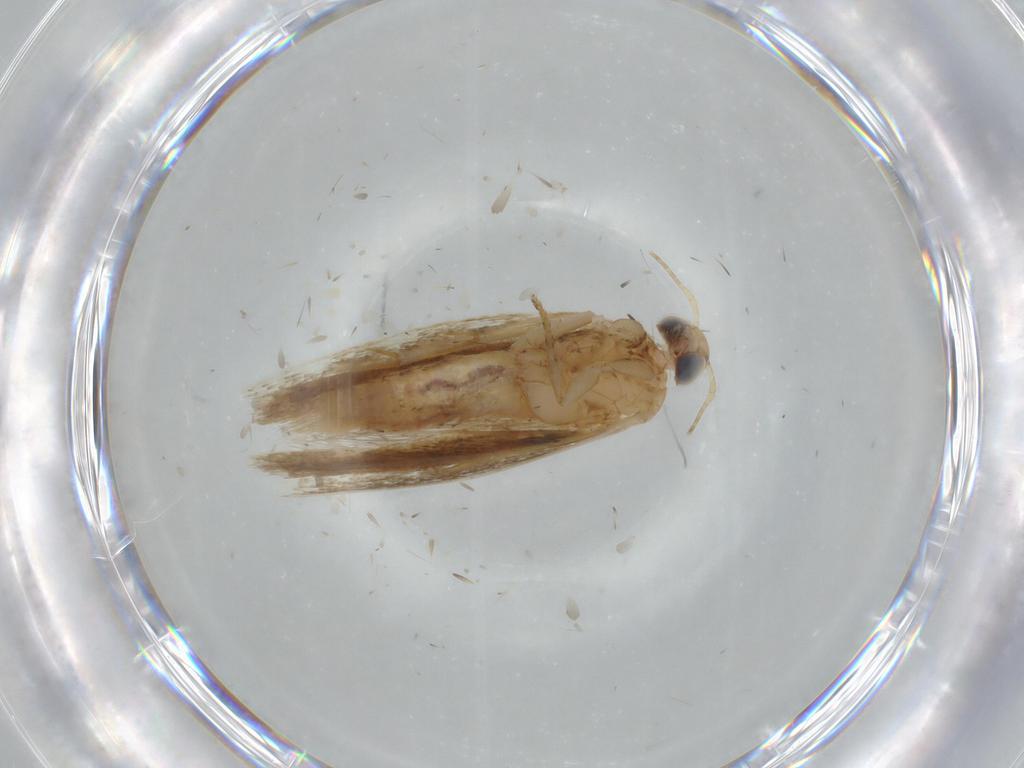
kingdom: Animalia
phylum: Arthropoda
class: Insecta
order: Lepidoptera
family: Gelechiidae
